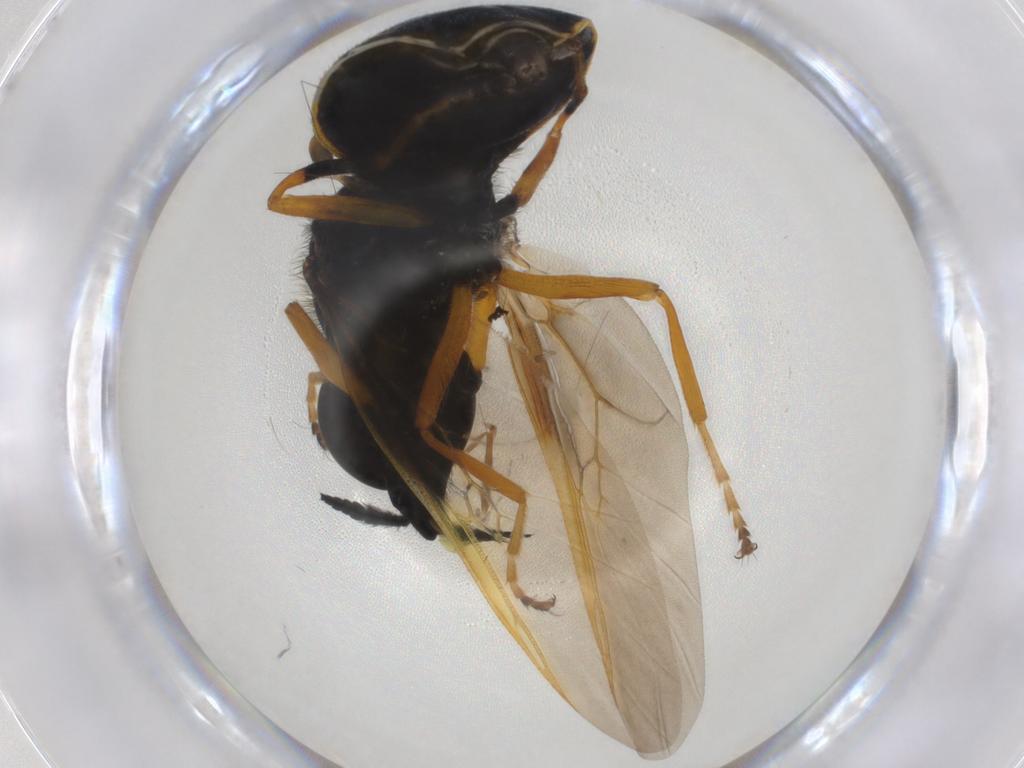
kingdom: Animalia
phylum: Arthropoda
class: Insecta
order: Diptera
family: Stratiomyidae
